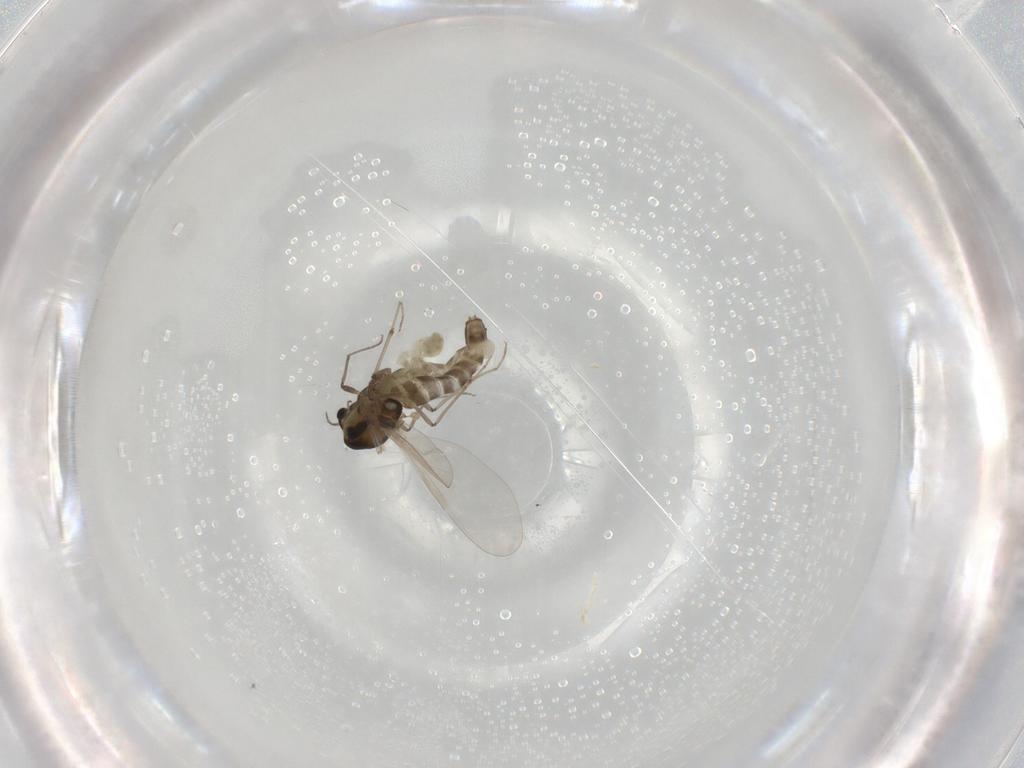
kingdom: Animalia
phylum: Arthropoda
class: Insecta
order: Diptera
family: Chironomidae
